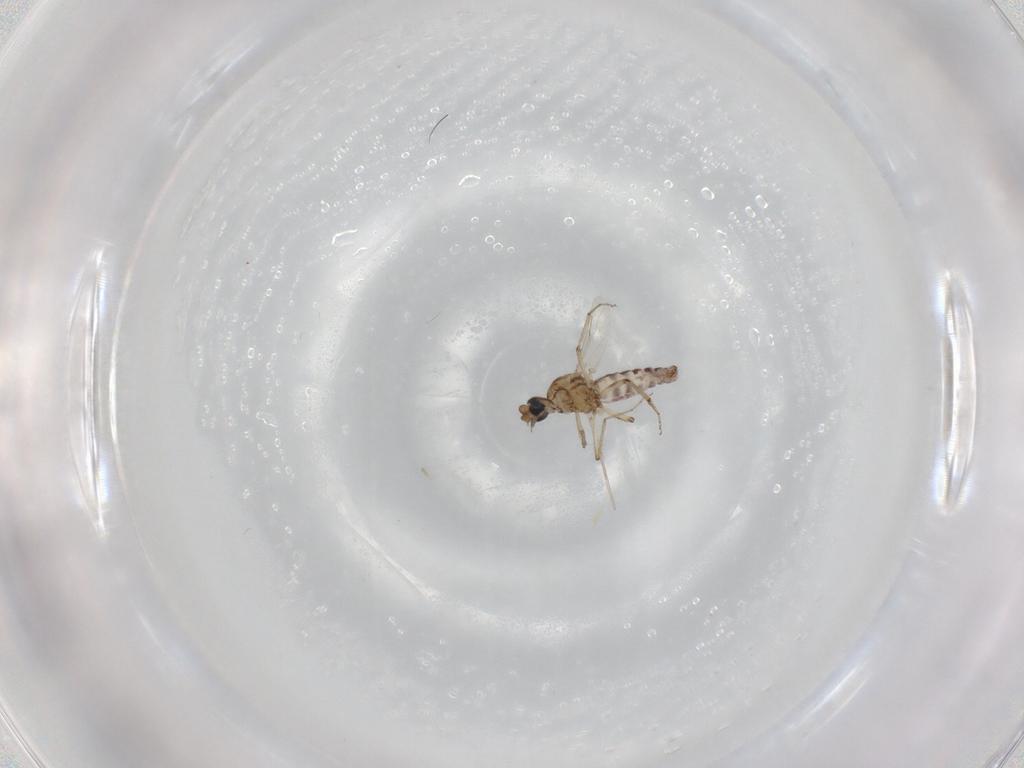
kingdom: Animalia
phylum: Arthropoda
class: Insecta
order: Diptera
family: Ceratopogonidae
